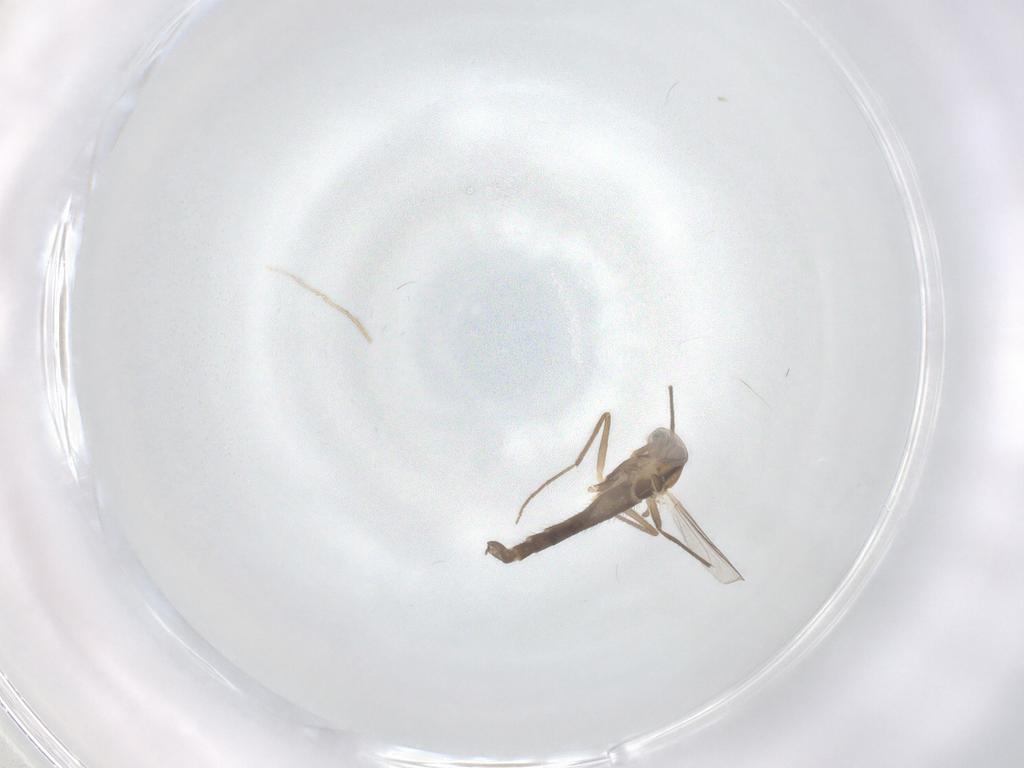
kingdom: Animalia
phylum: Arthropoda
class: Insecta
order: Diptera
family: Chironomidae
